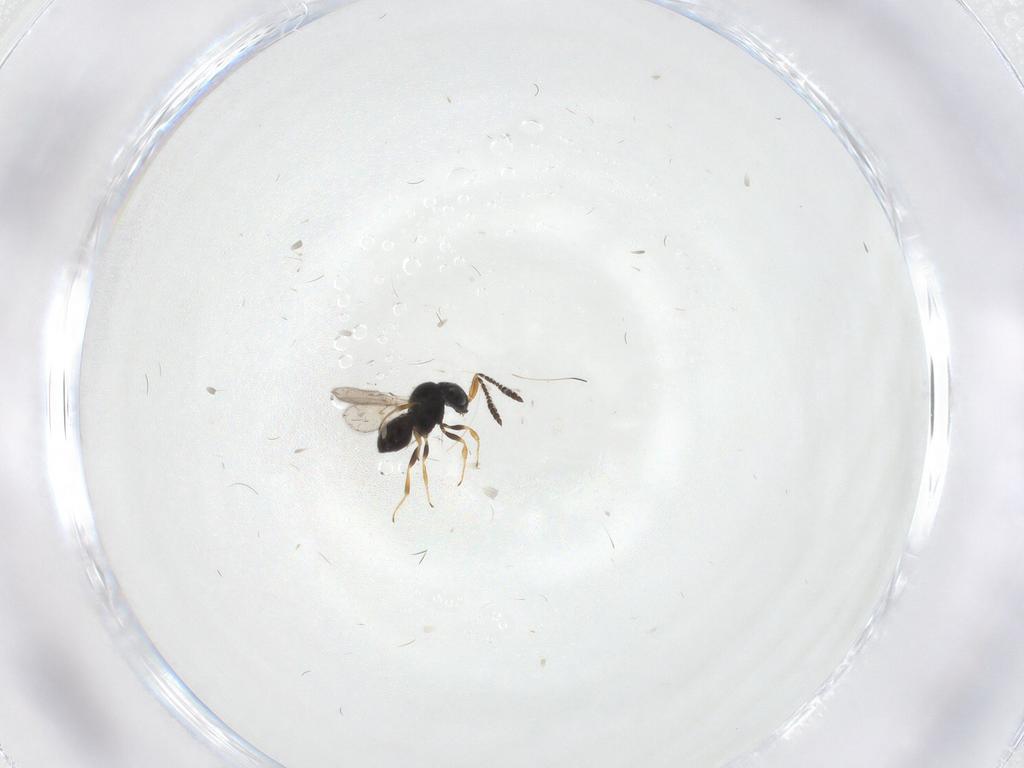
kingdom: Animalia
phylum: Arthropoda
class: Insecta
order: Hymenoptera
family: Scelionidae
